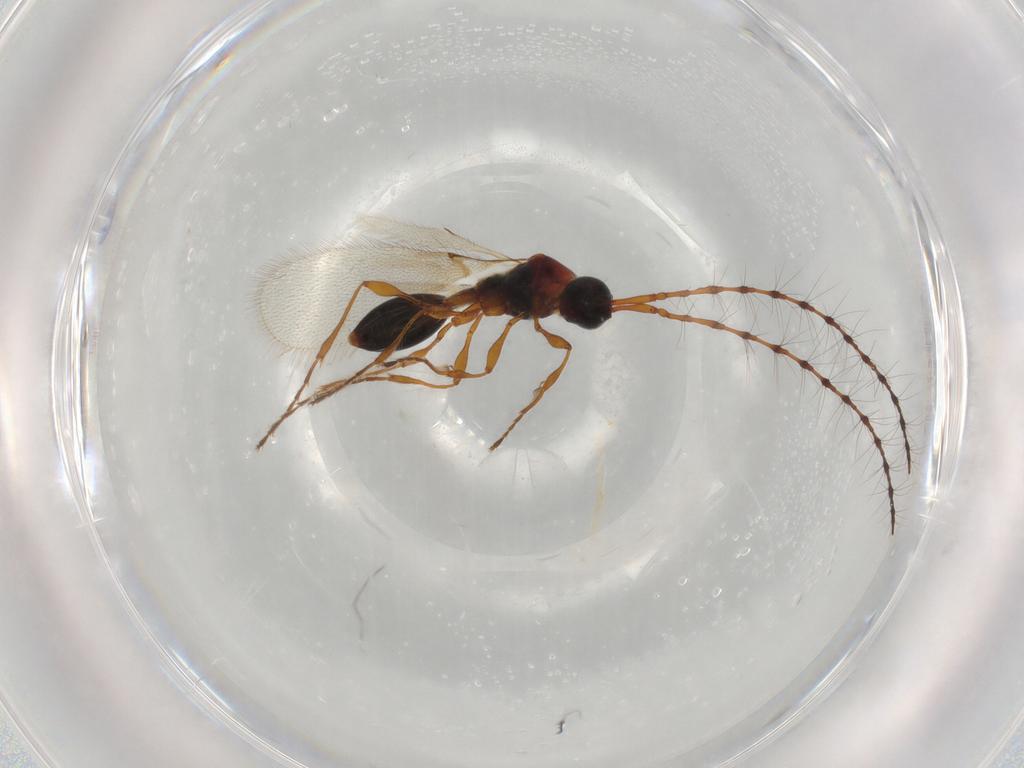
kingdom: Animalia
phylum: Arthropoda
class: Insecta
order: Hymenoptera
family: Diapriidae
